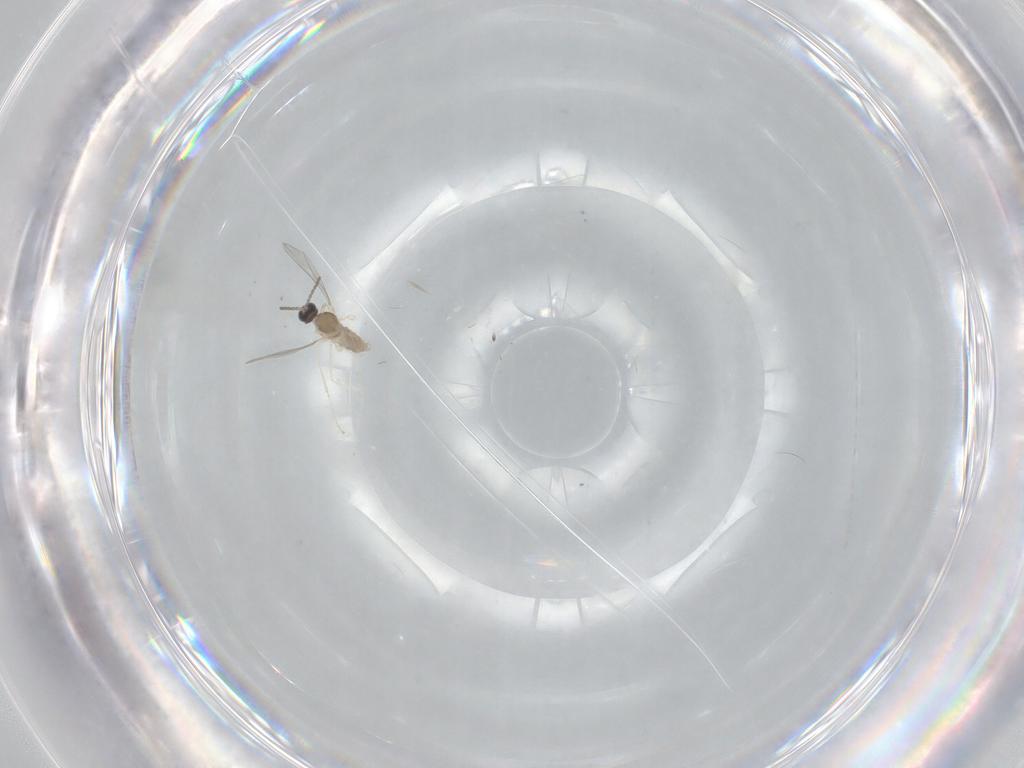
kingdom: Animalia
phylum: Arthropoda
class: Insecta
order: Diptera
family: Cecidomyiidae
